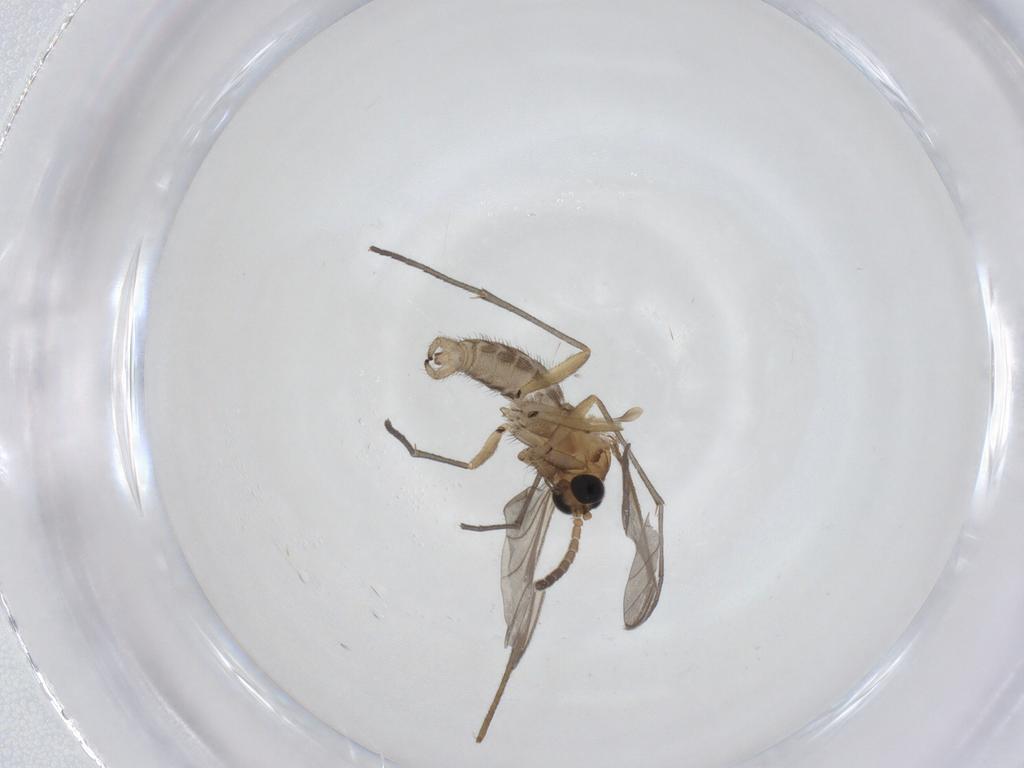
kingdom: Animalia
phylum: Arthropoda
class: Insecta
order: Diptera
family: Sciaridae
